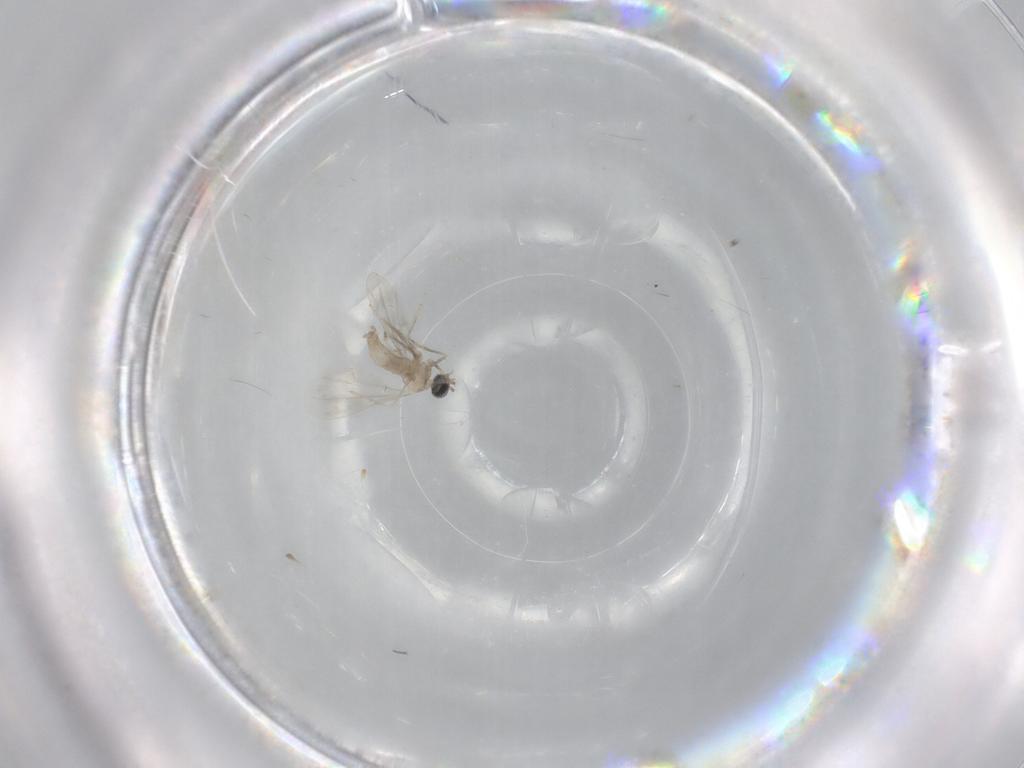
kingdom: Animalia
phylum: Arthropoda
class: Insecta
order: Diptera
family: Cecidomyiidae
